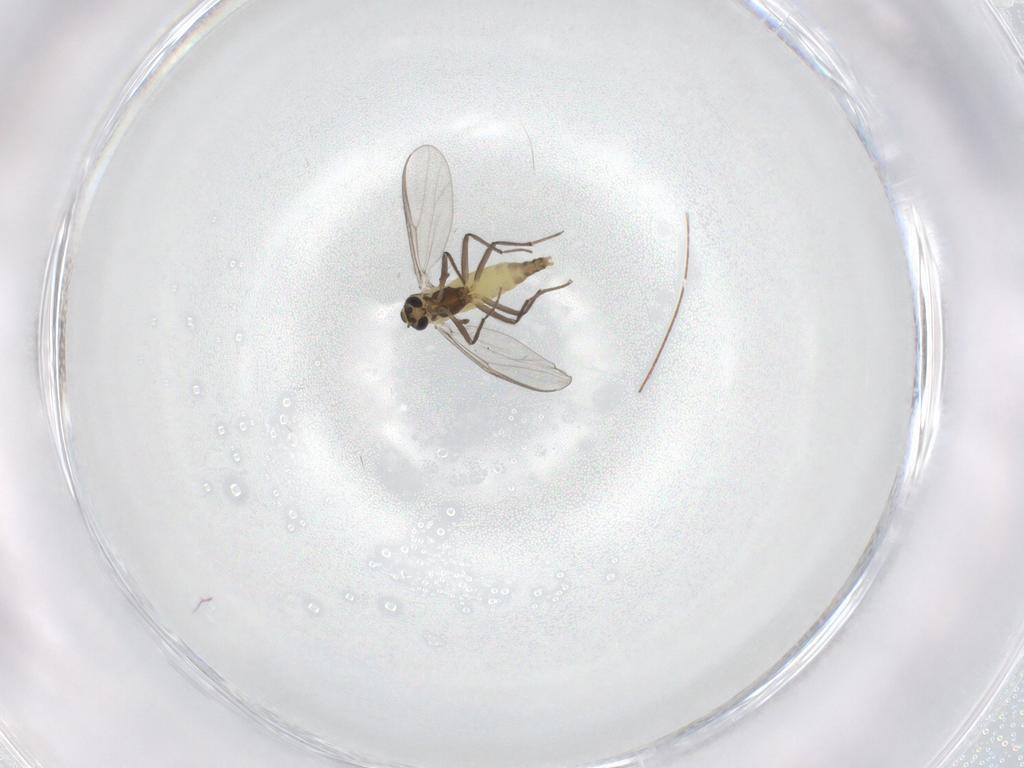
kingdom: Animalia
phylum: Arthropoda
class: Insecta
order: Diptera
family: Chironomidae
